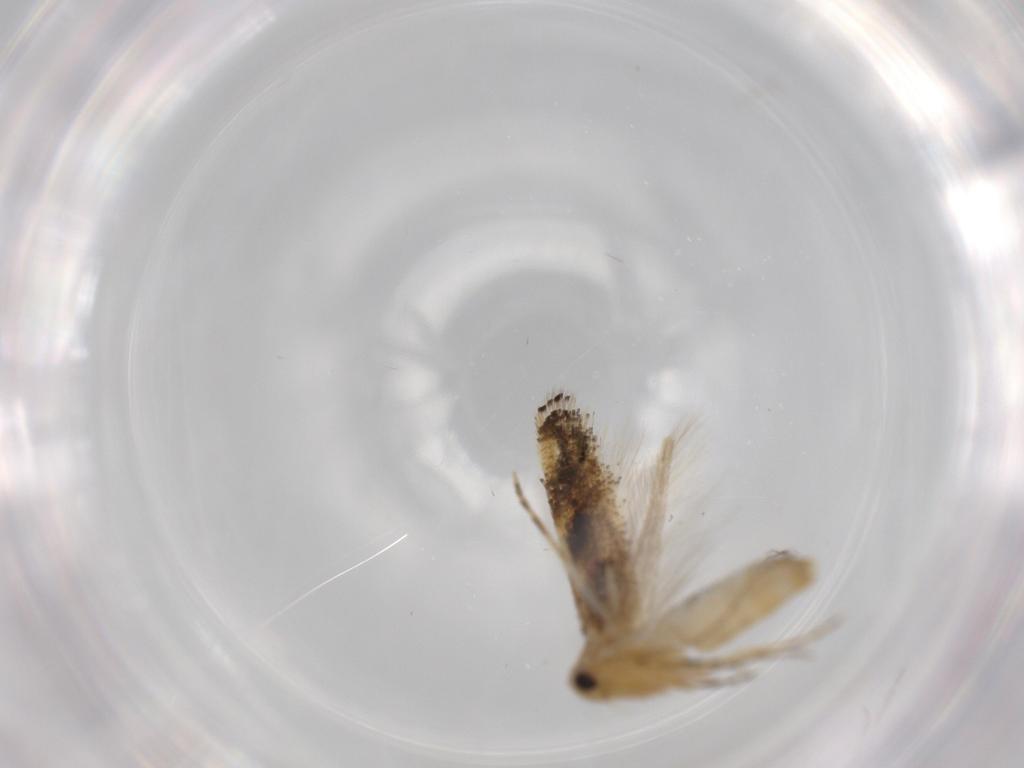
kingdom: Animalia
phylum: Arthropoda
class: Insecta
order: Lepidoptera
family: Bucculatricidae
